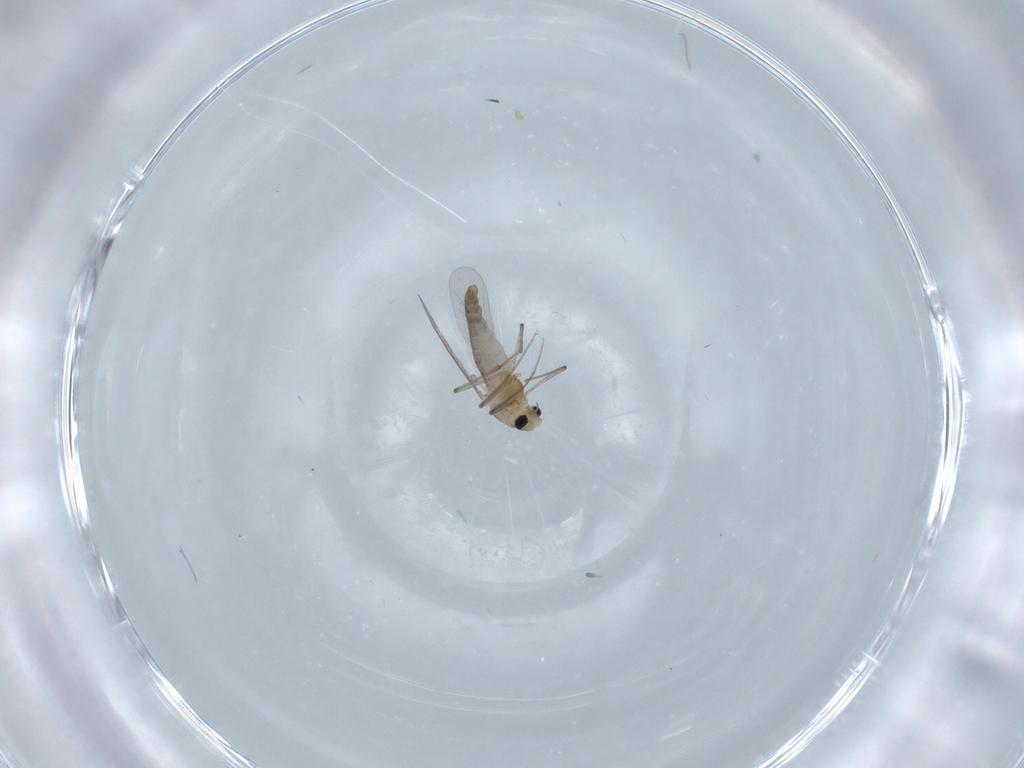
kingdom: Animalia
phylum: Arthropoda
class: Insecta
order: Diptera
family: Chironomidae
